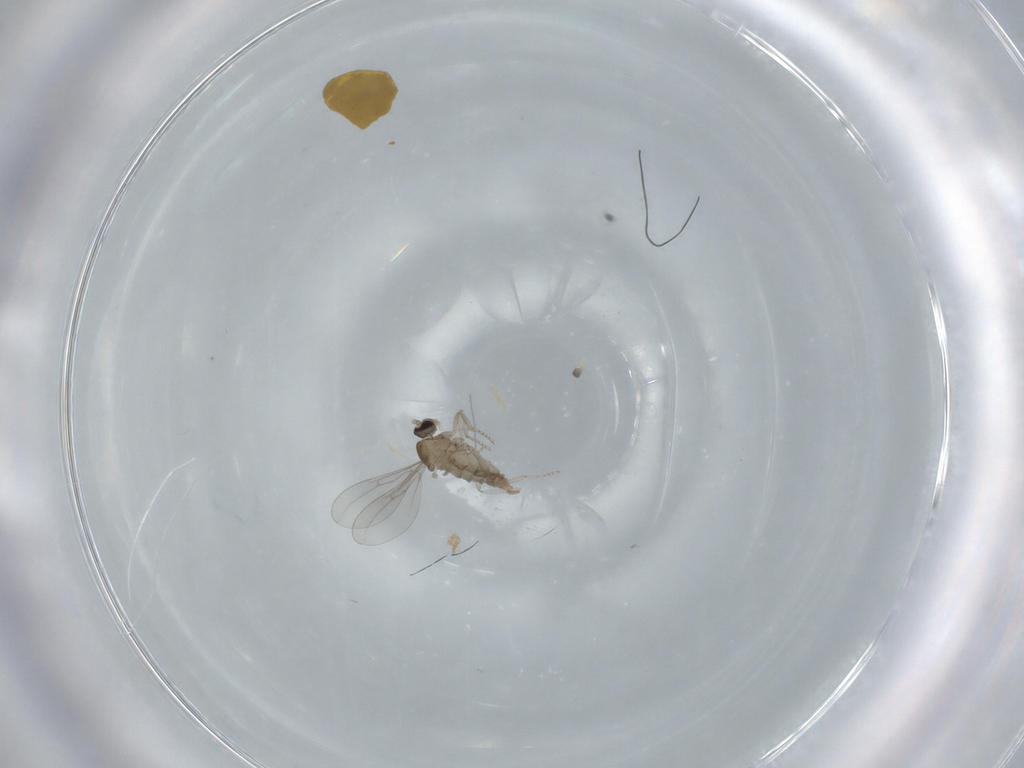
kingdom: Animalia
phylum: Arthropoda
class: Insecta
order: Diptera
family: Cecidomyiidae
